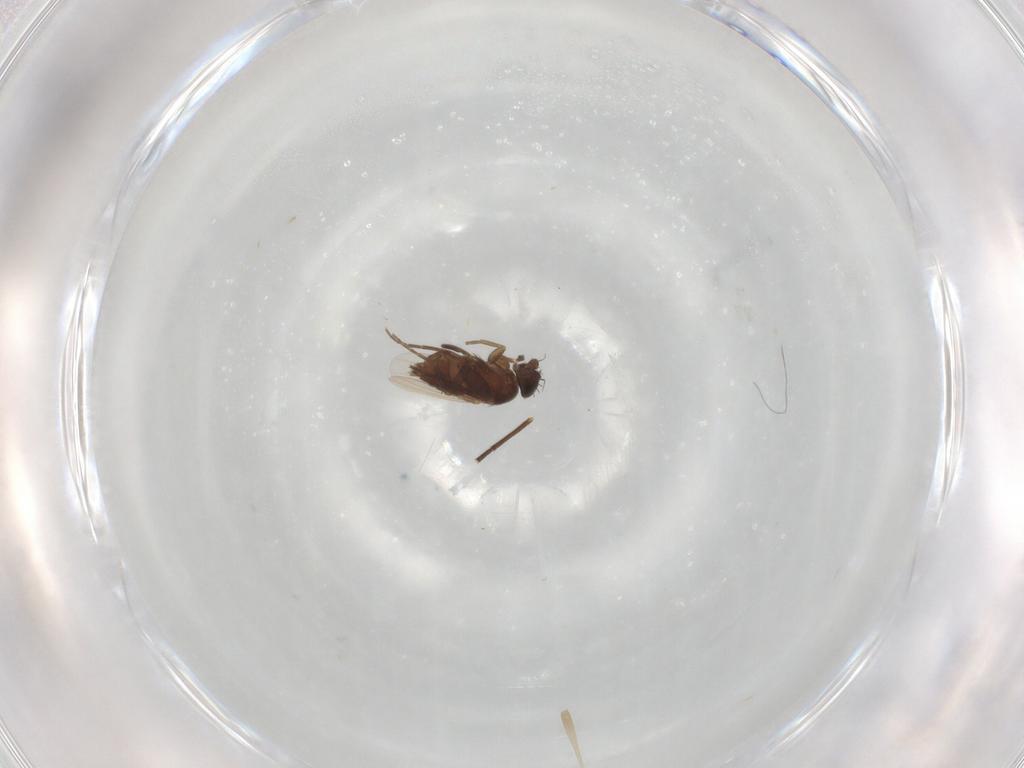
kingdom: Animalia
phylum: Arthropoda
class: Insecta
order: Diptera
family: Dolichopodidae
